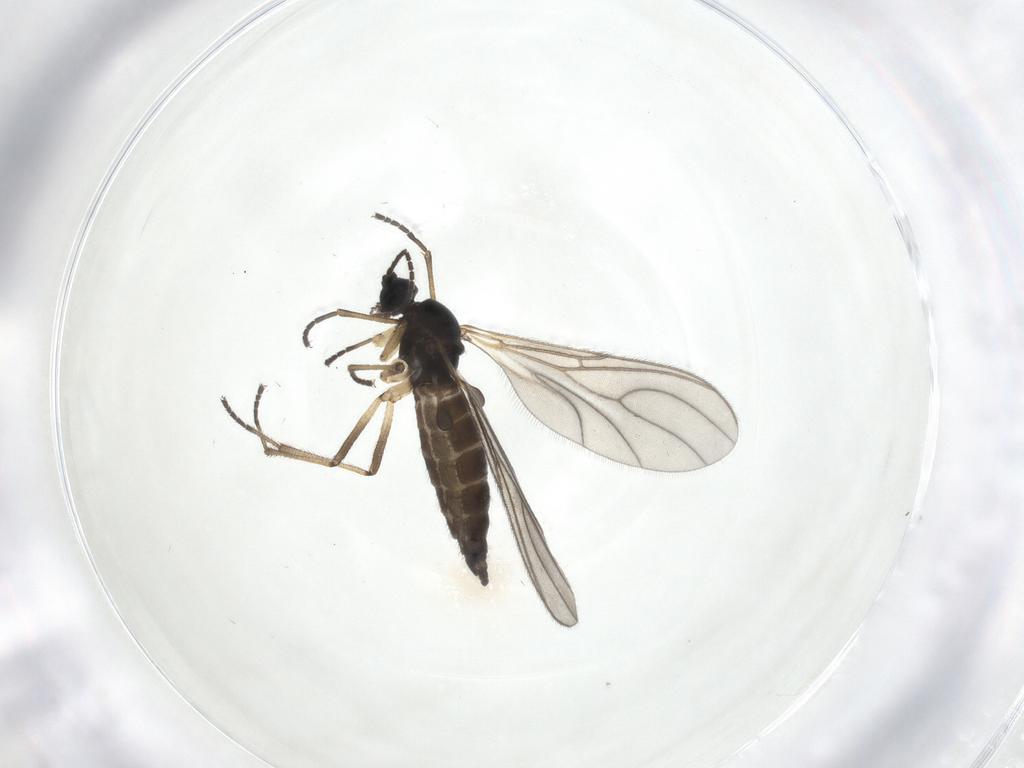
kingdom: Animalia
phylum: Arthropoda
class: Insecta
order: Diptera
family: Sciaridae
